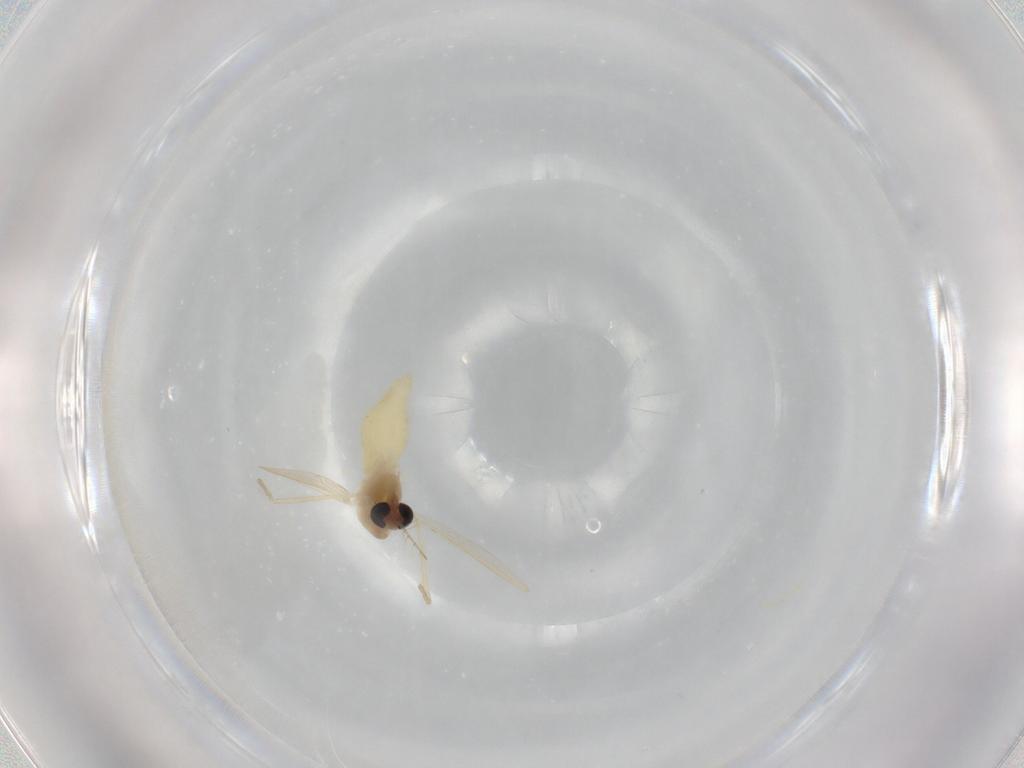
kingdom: Animalia
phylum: Arthropoda
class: Insecta
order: Diptera
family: Chironomidae
